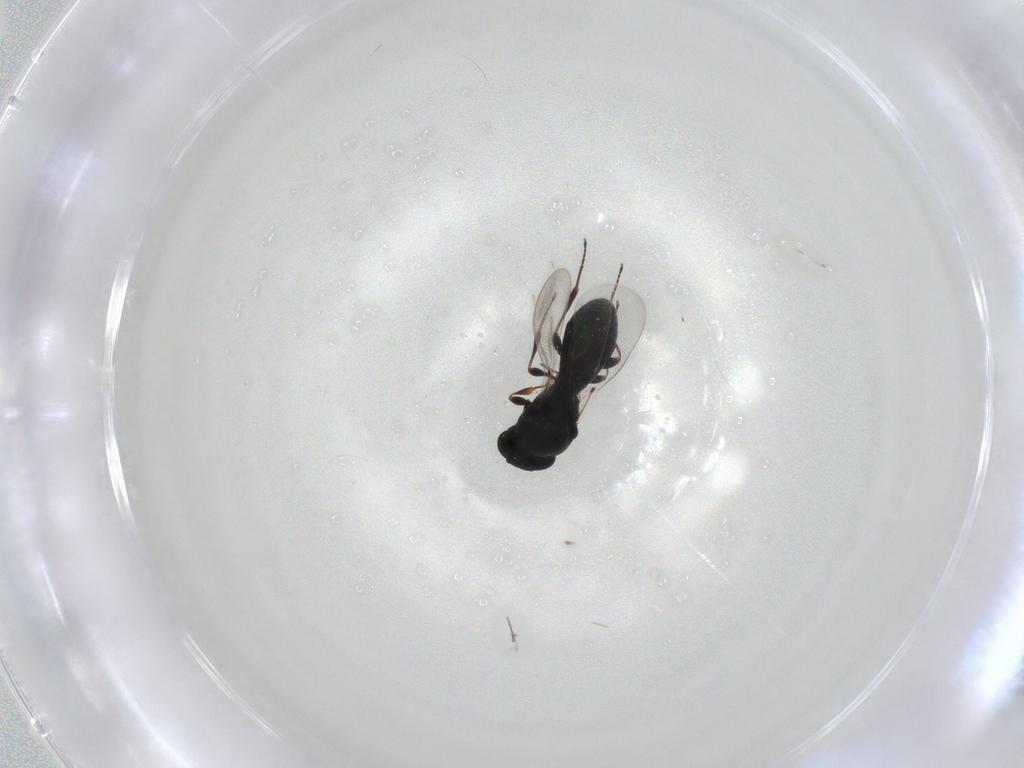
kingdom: Animalia
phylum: Arthropoda
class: Insecta
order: Hymenoptera
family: Platygastridae
